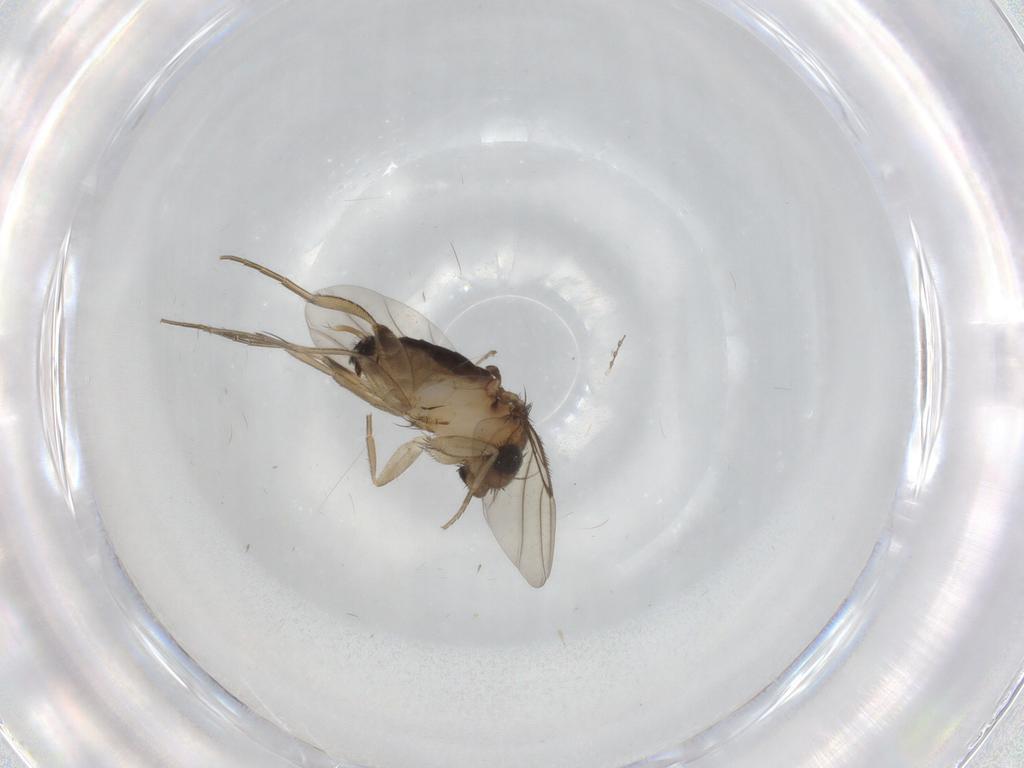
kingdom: Animalia
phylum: Arthropoda
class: Insecta
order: Diptera
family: Phoridae
